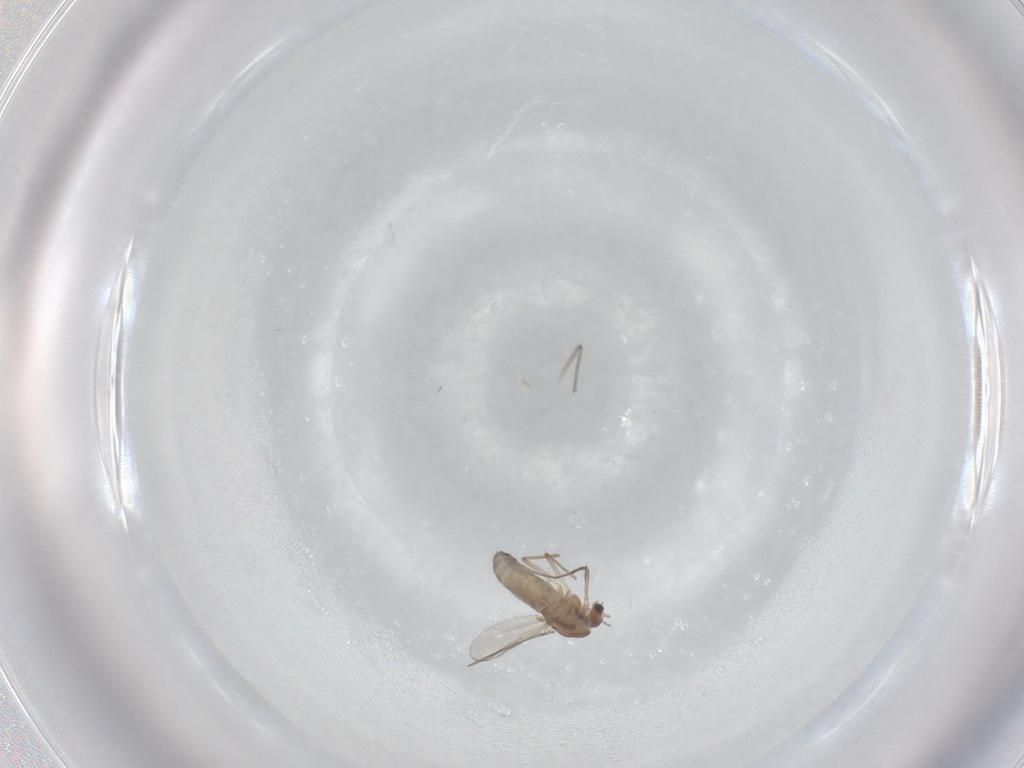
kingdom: Animalia
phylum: Arthropoda
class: Insecta
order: Diptera
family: Chironomidae
